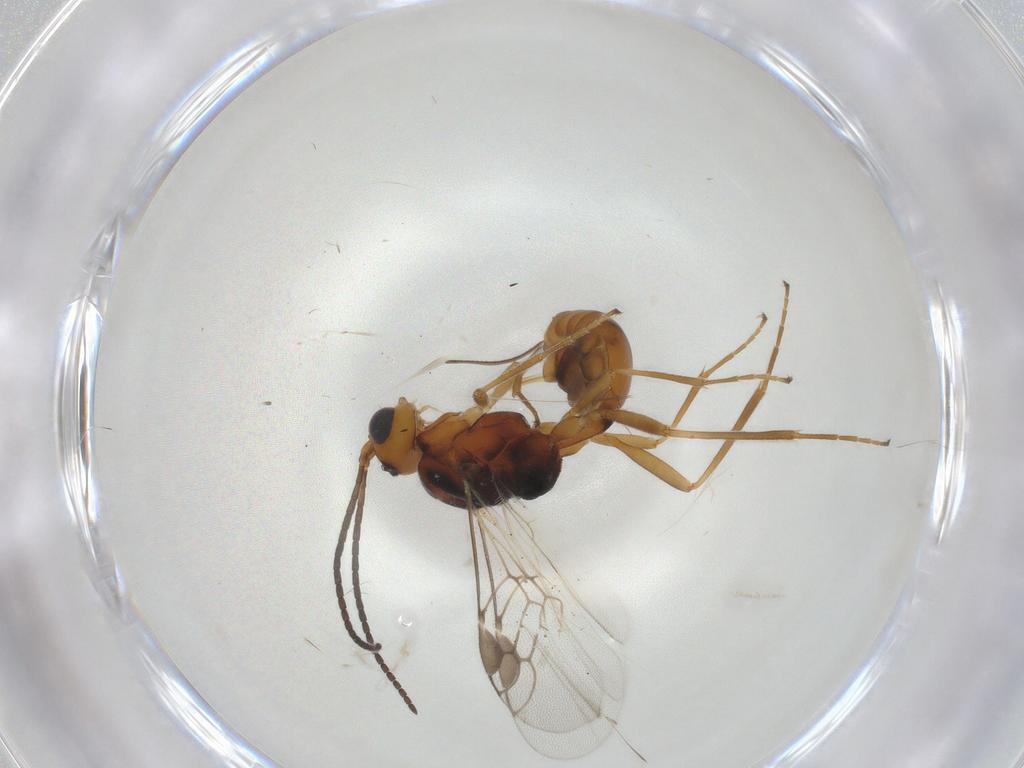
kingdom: Animalia
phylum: Arthropoda
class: Insecta
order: Hymenoptera
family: Braconidae
